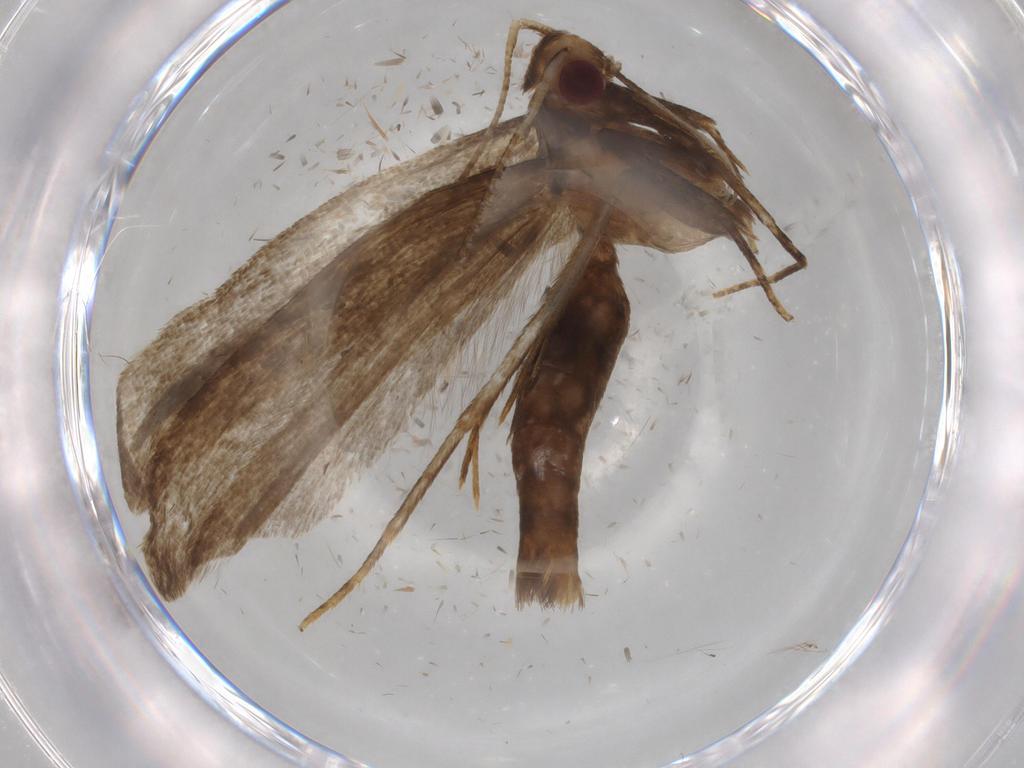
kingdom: Animalia
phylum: Arthropoda
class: Insecta
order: Lepidoptera
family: Gelechiidae
